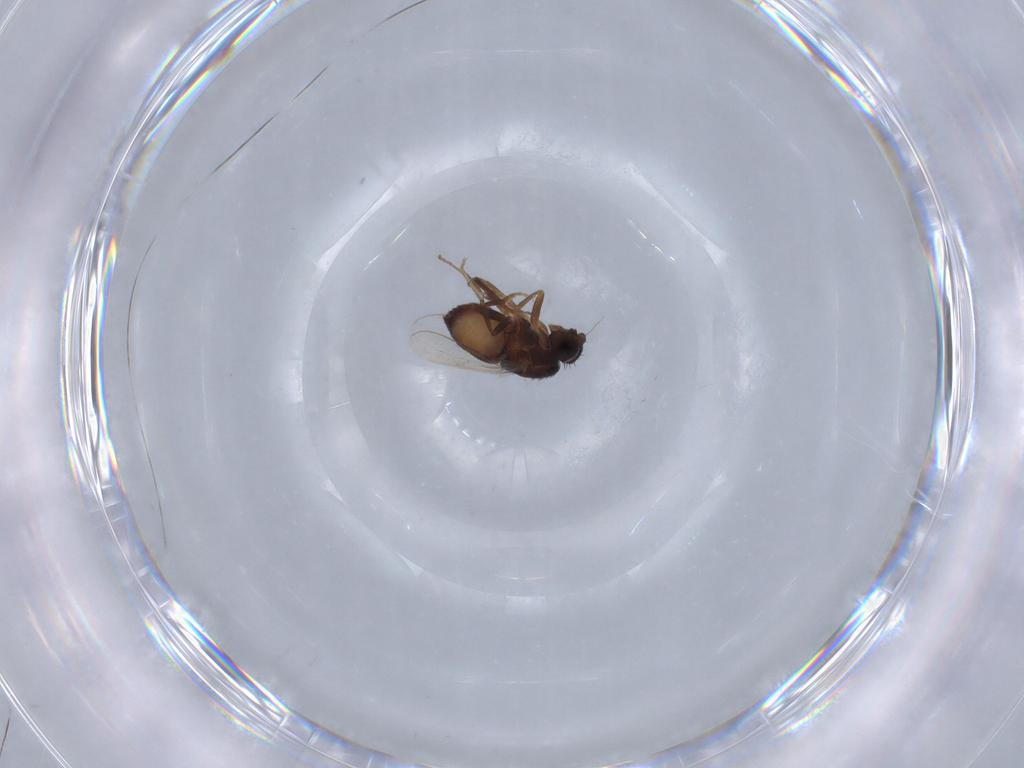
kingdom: Animalia
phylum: Arthropoda
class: Insecta
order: Diptera
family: Sphaeroceridae
